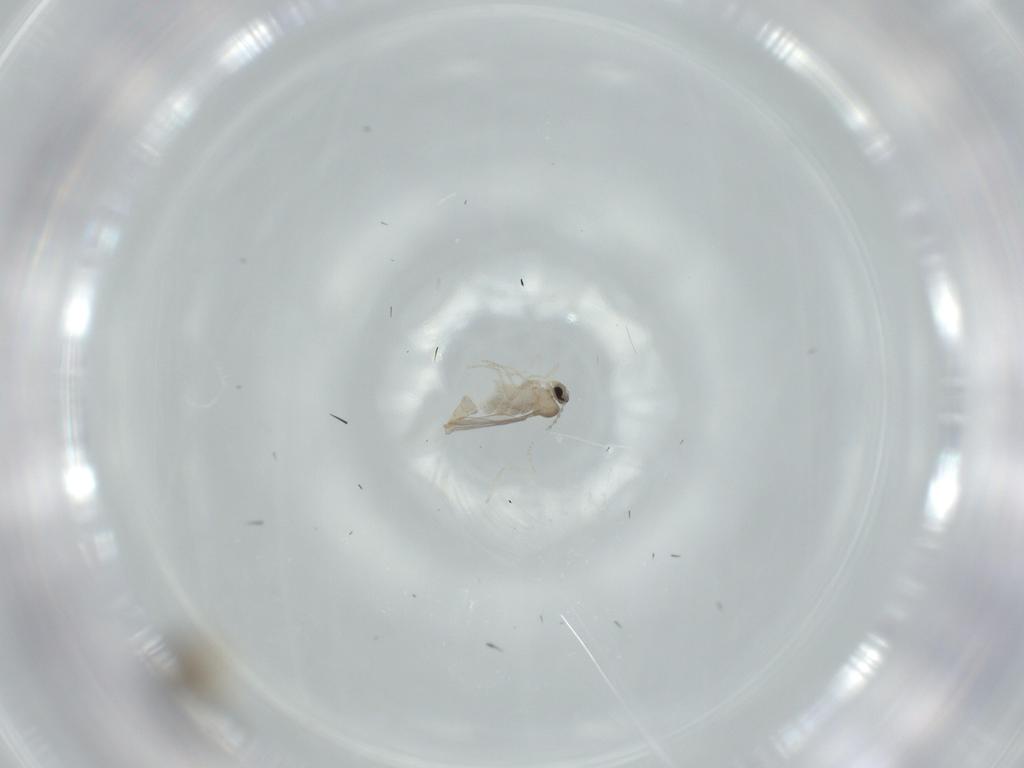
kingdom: Animalia
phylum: Arthropoda
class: Insecta
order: Diptera
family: Cecidomyiidae
